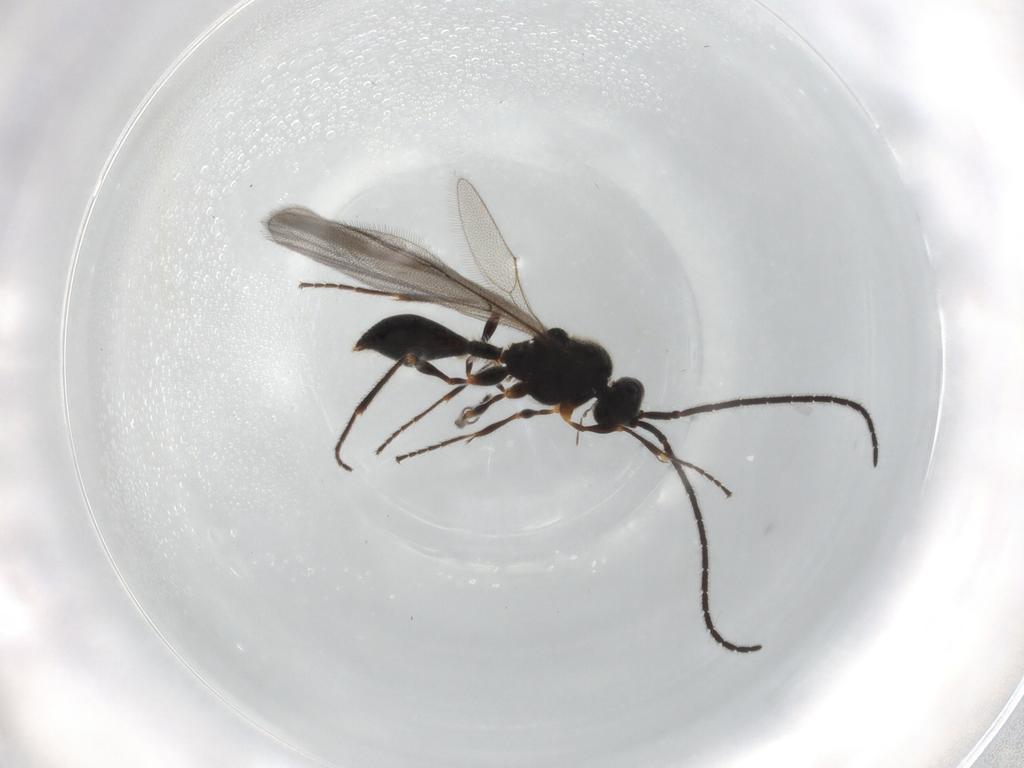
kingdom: Animalia
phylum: Arthropoda
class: Insecta
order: Hymenoptera
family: Diapriidae
